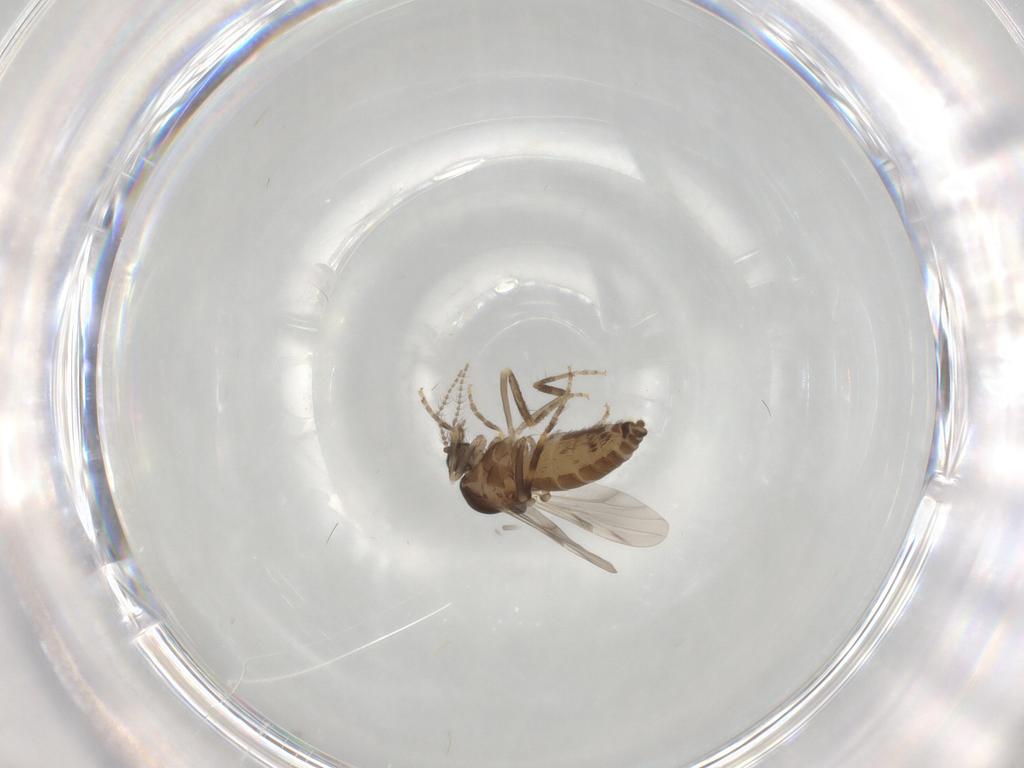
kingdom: Animalia
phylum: Arthropoda
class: Insecta
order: Diptera
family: Ceratopogonidae
